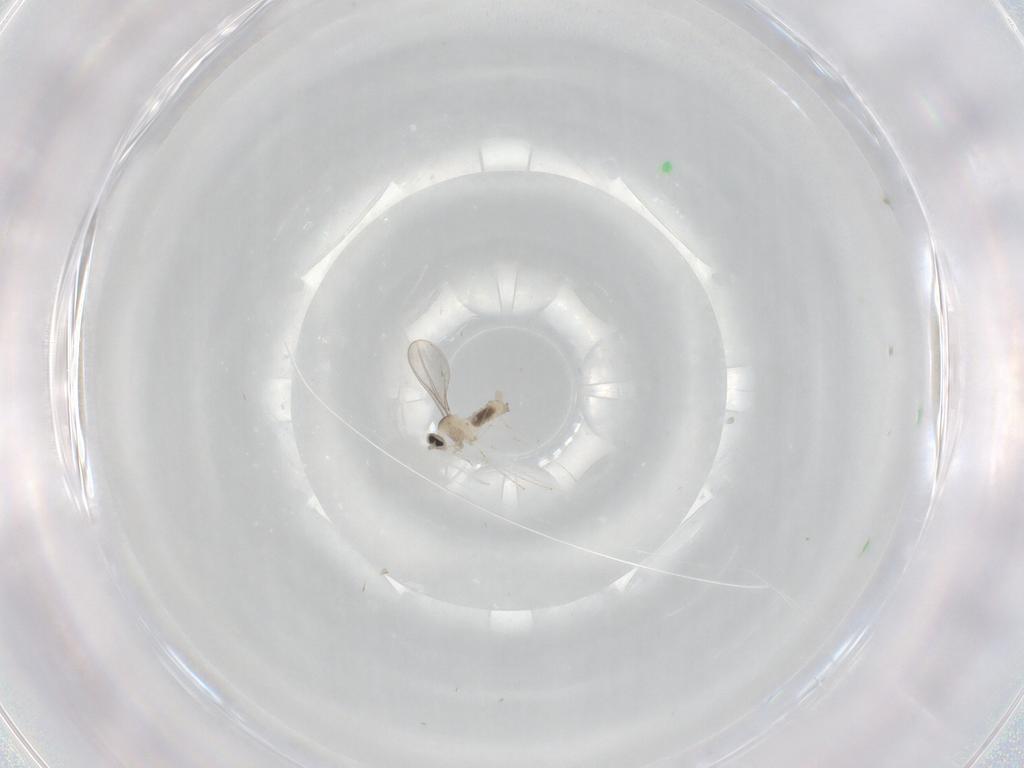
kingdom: Animalia
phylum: Arthropoda
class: Insecta
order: Diptera
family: Cecidomyiidae
